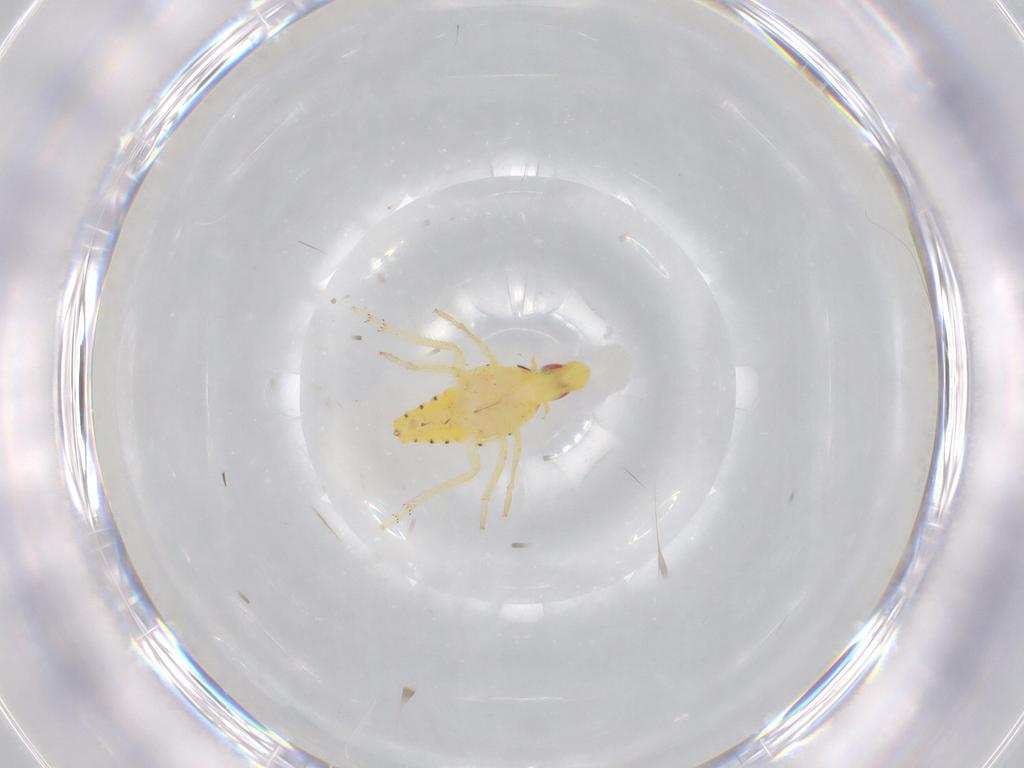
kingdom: Animalia
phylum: Arthropoda
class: Insecta
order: Hemiptera
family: Tropiduchidae
